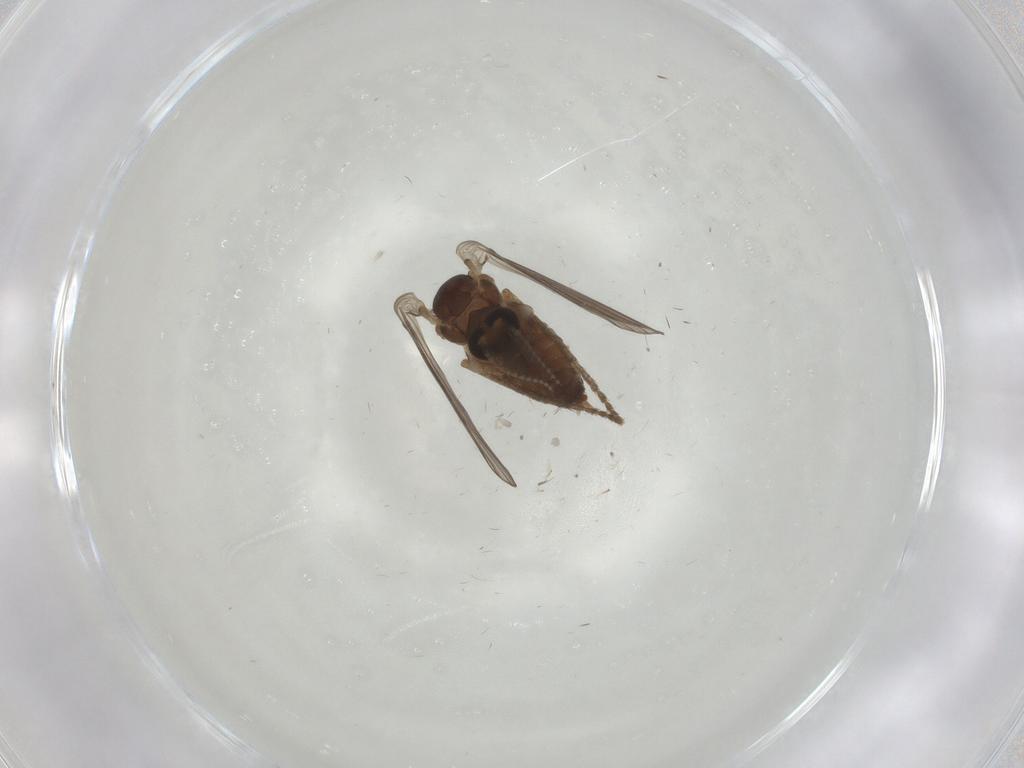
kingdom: Animalia
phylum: Arthropoda
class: Insecta
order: Diptera
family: Psychodidae
